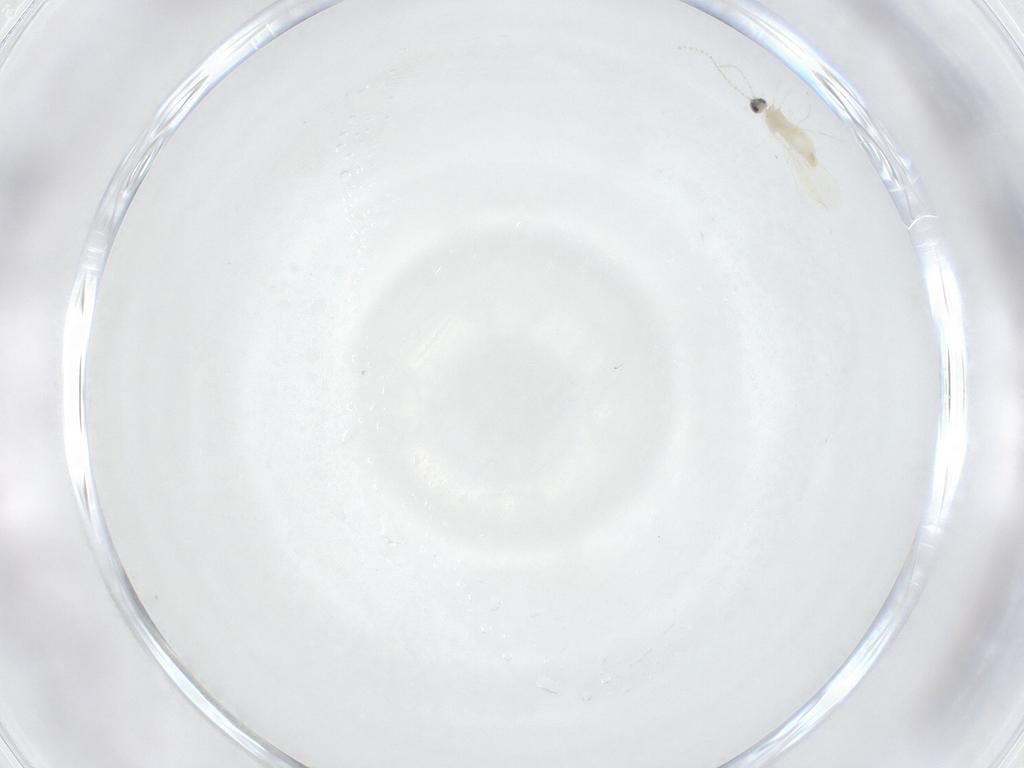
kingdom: Animalia
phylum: Arthropoda
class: Insecta
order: Diptera
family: Cecidomyiidae
